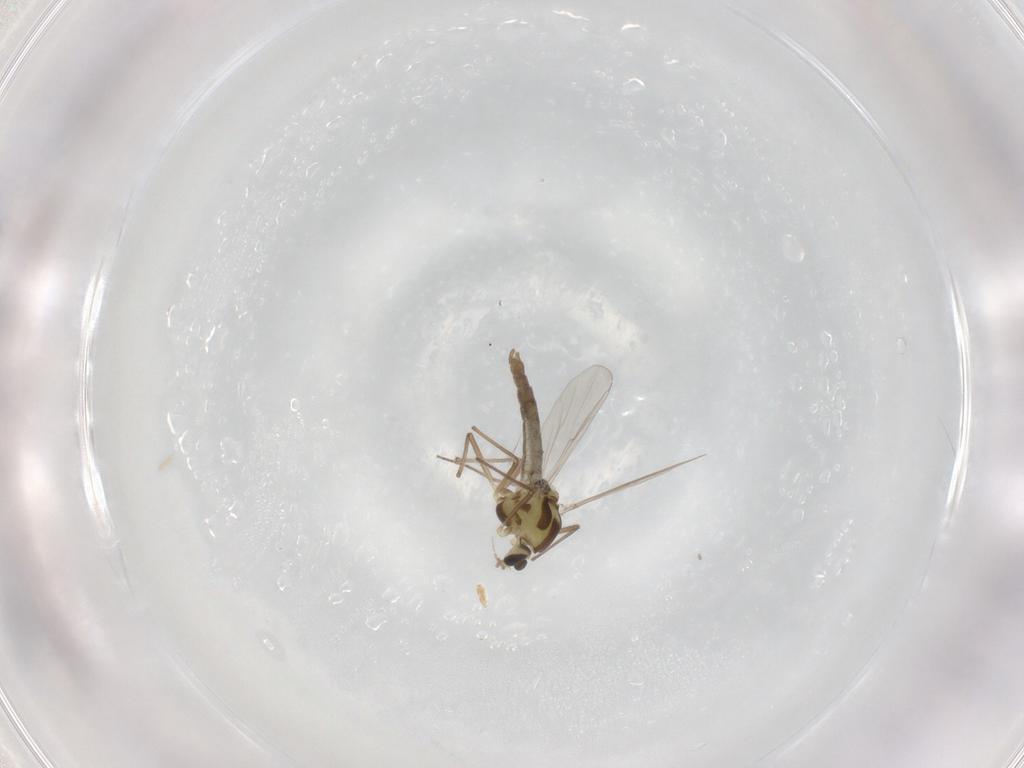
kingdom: Animalia
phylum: Arthropoda
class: Insecta
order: Diptera
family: Chironomidae
